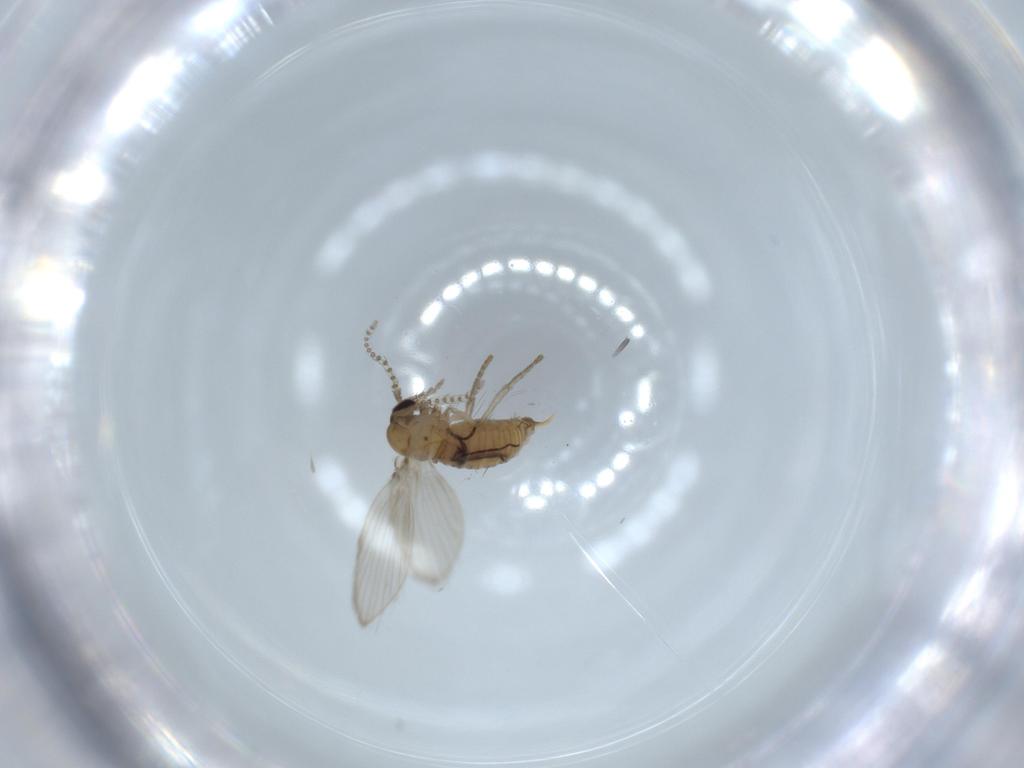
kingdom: Animalia
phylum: Arthropoda
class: Insecta
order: Diptera
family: Psychodidae
